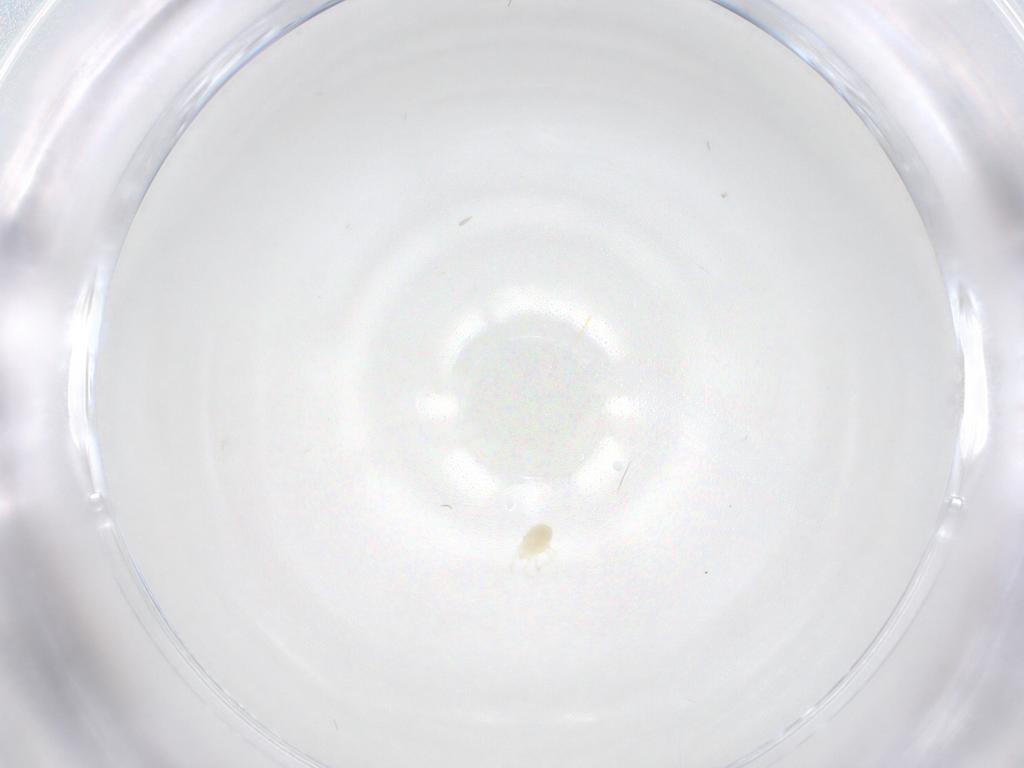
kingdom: Animalia
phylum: Arthropoda
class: Arachnida
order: Trombidiformes
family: Tetranychidae
